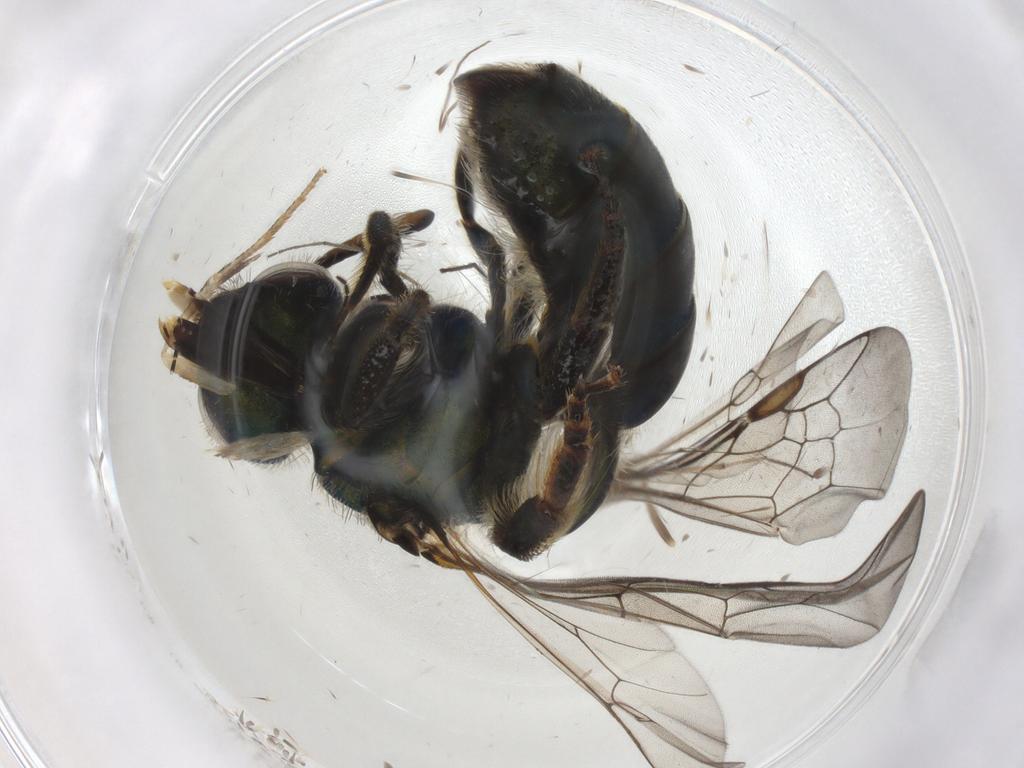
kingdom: Animalia
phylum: Arthropoda
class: Insecta
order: Hymenoptera
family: Halictidae
